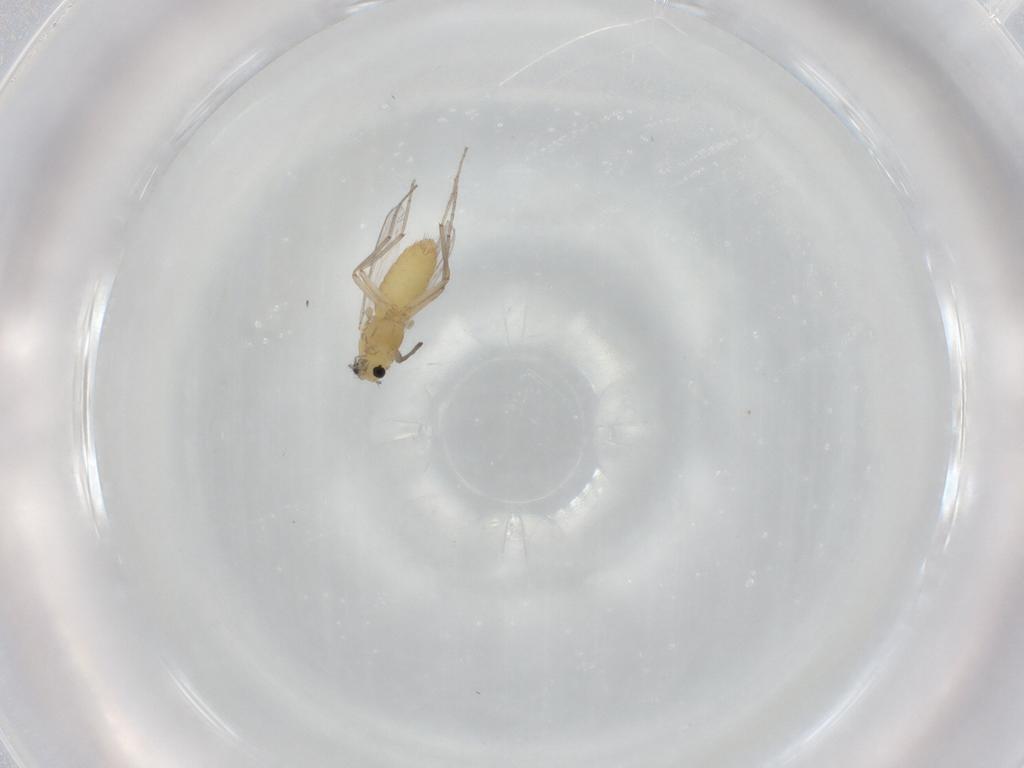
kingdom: Animalia
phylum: Arthropoda
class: Insecta
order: Diptera
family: Chironomidae
